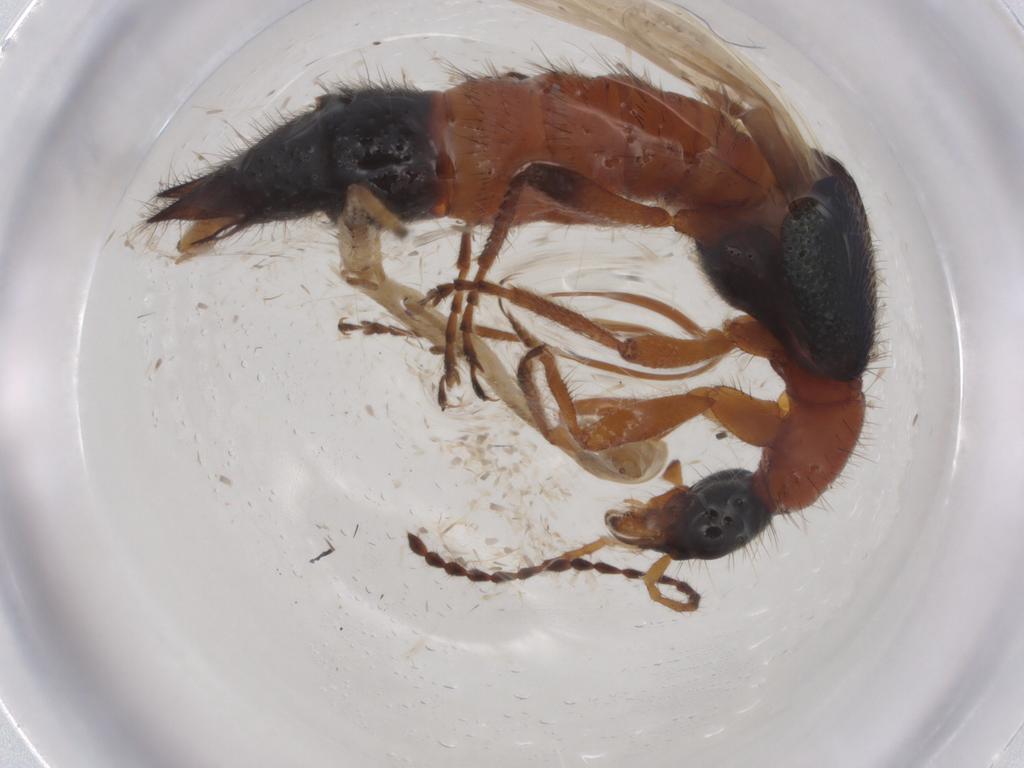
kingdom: Animalia
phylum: Arthropoda
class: Insecta
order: Coleoptera
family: Staphylinidae
